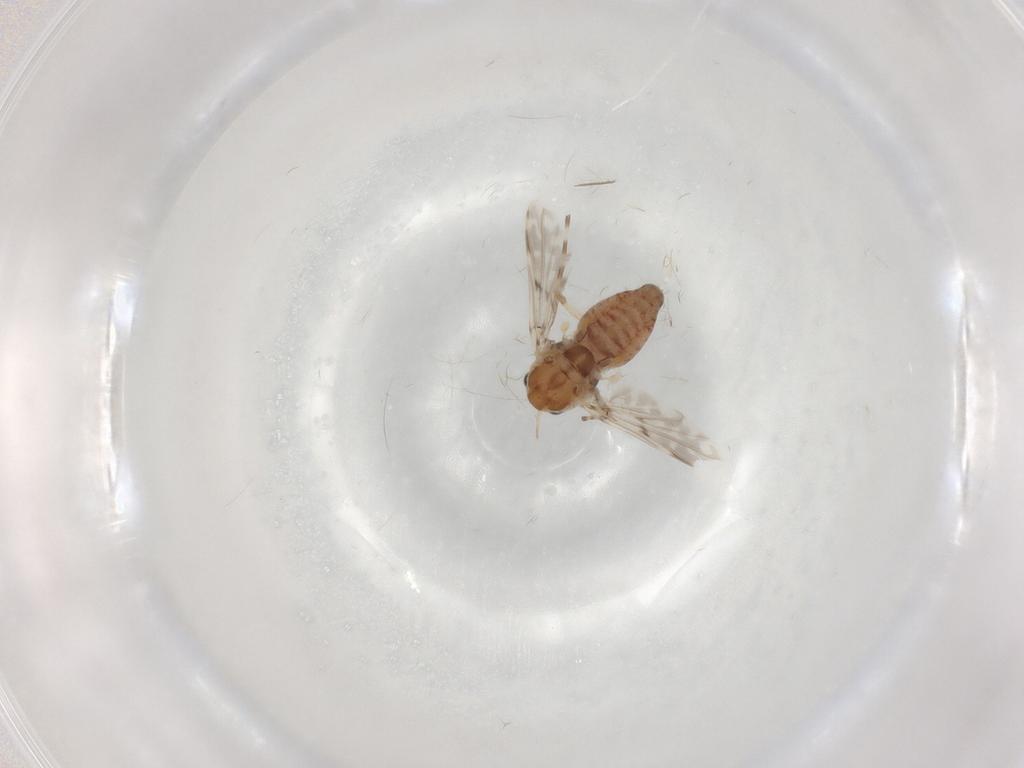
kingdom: Animalia
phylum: Arthropoda
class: Insecta
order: Diptera
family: Chironomidae
